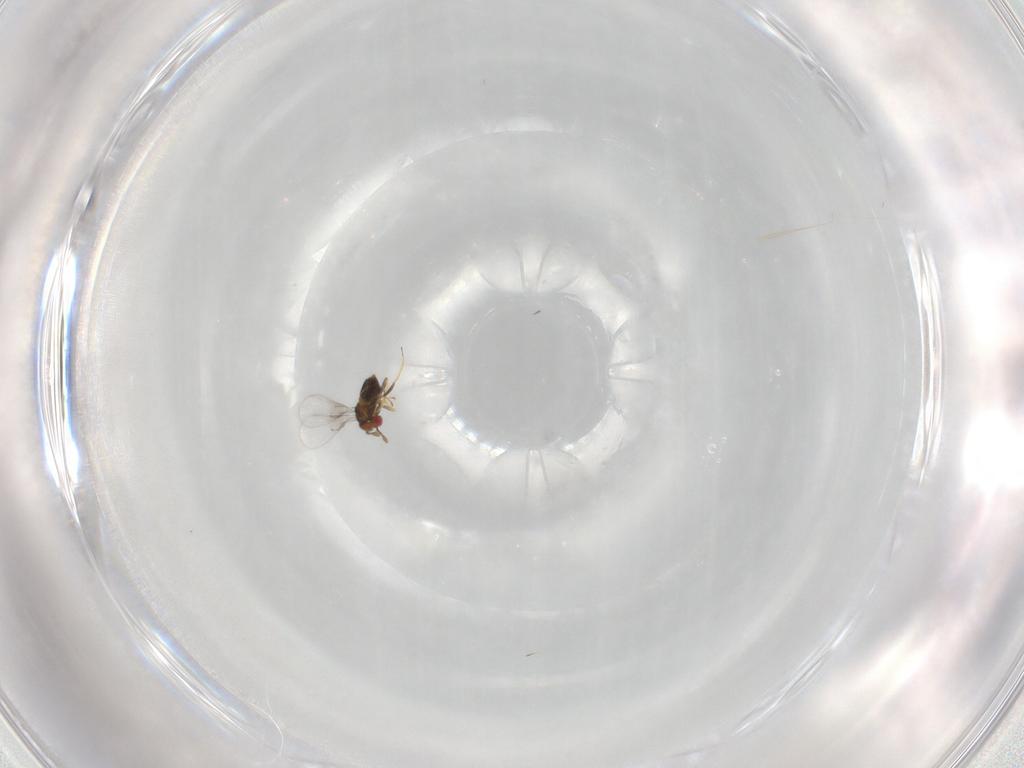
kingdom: Animalia
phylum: Arthropoda
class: Insecta
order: Hymenoptera
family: Trichogrammatidae
